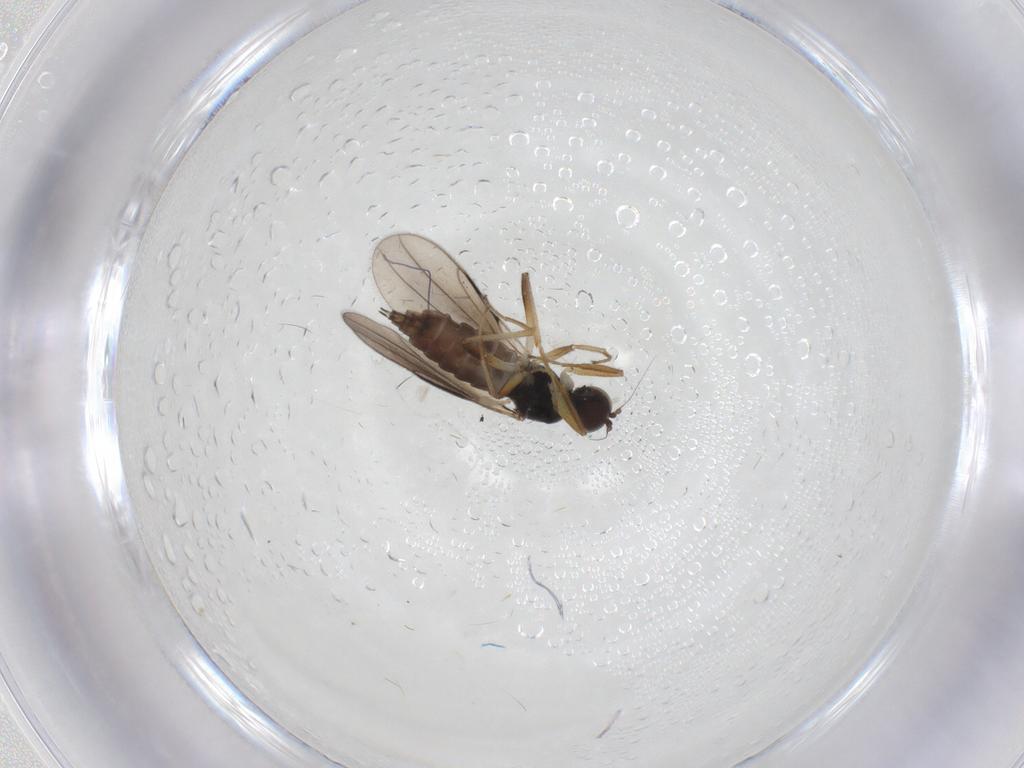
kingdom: Animalia
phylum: Arthropoda
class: Insecta
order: Diptera
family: Hybotidae
